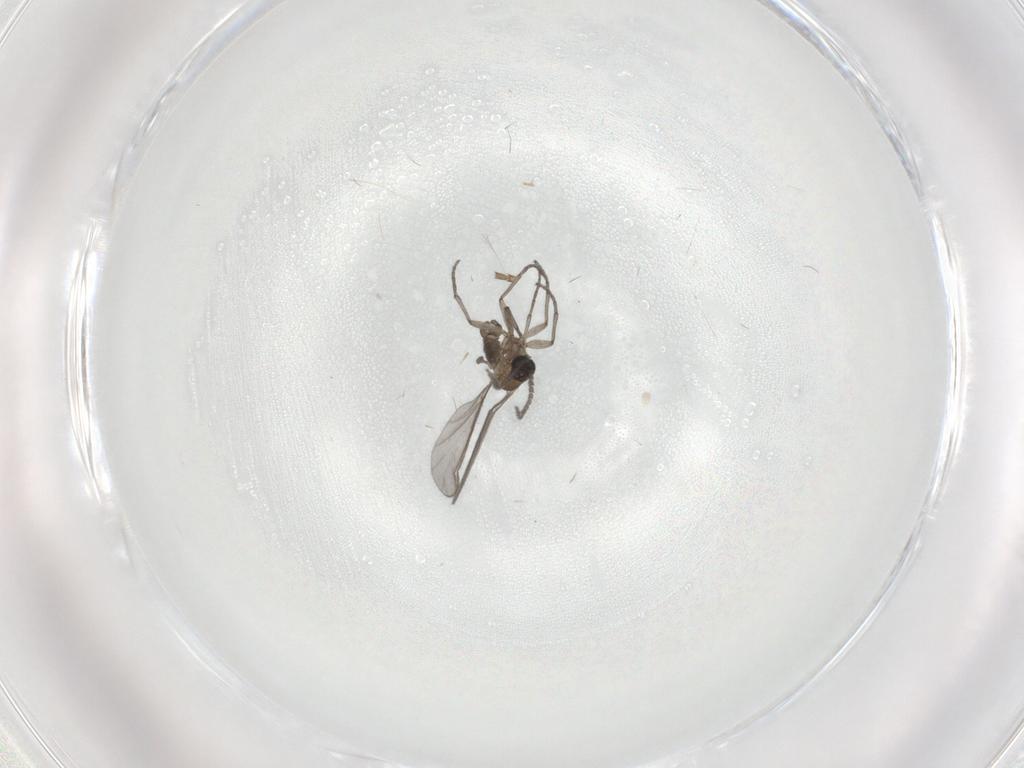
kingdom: Animalia
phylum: Arthropoda
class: Insecta
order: Diptera
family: Sciaridae
